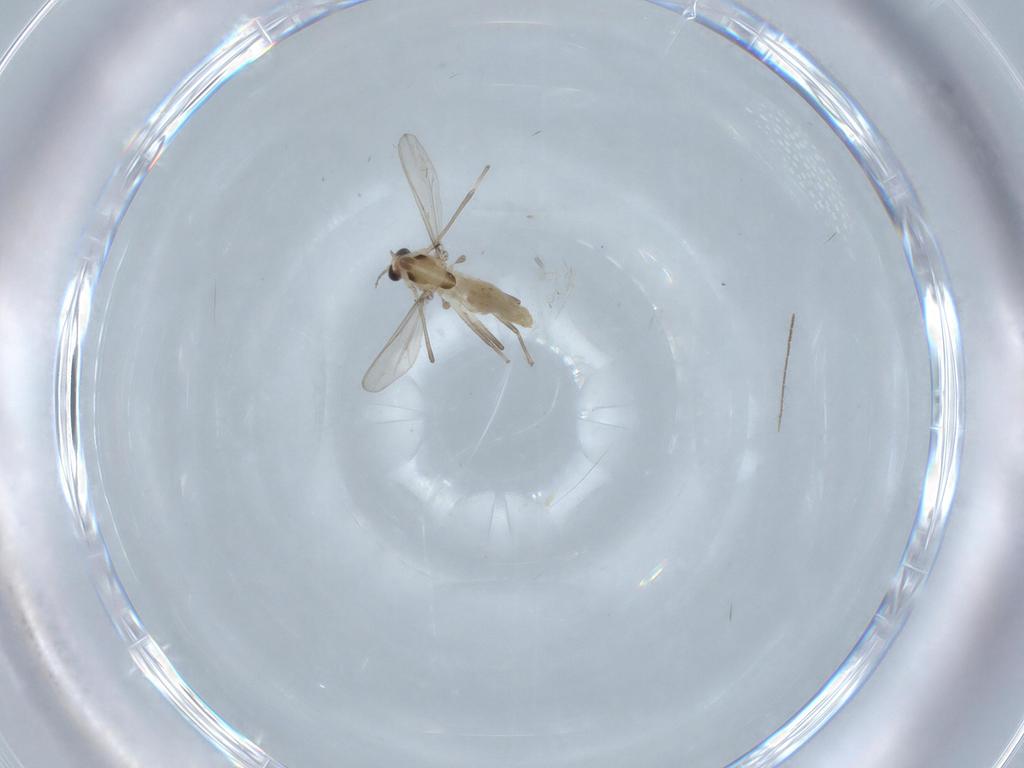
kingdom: Animalia
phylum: Arthropoda
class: Insecta
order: Diptera
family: Chironomidae
